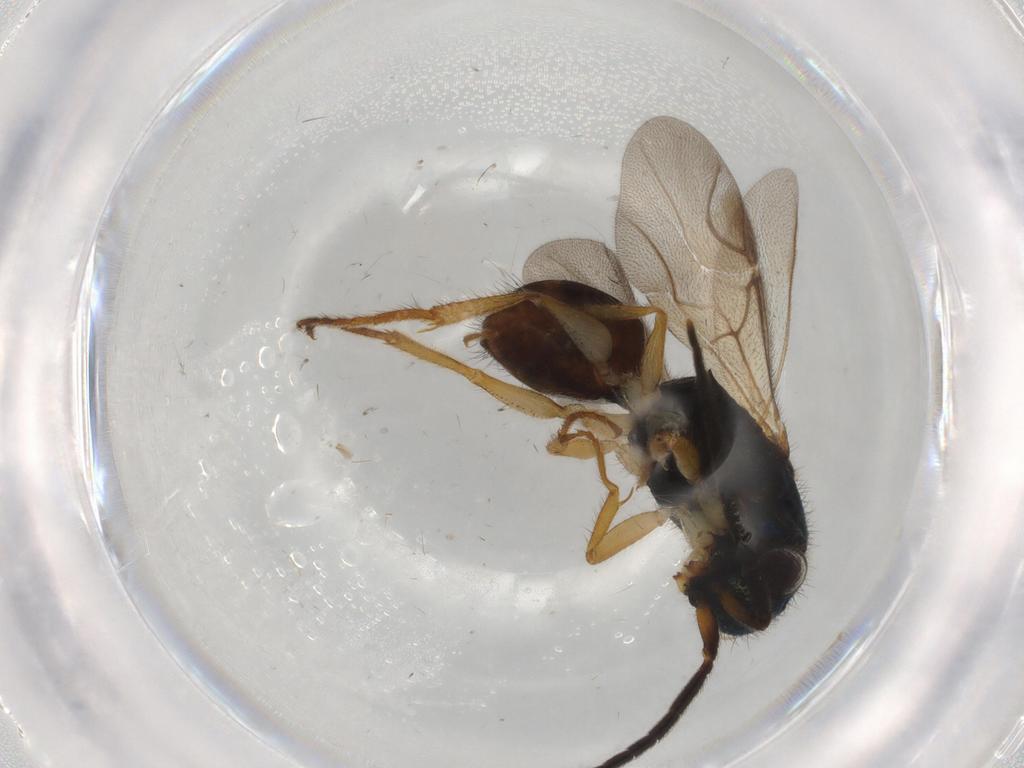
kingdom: Animalia
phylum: Arthropoda
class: Insecta
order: Hymenoptera
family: Chrysididae
